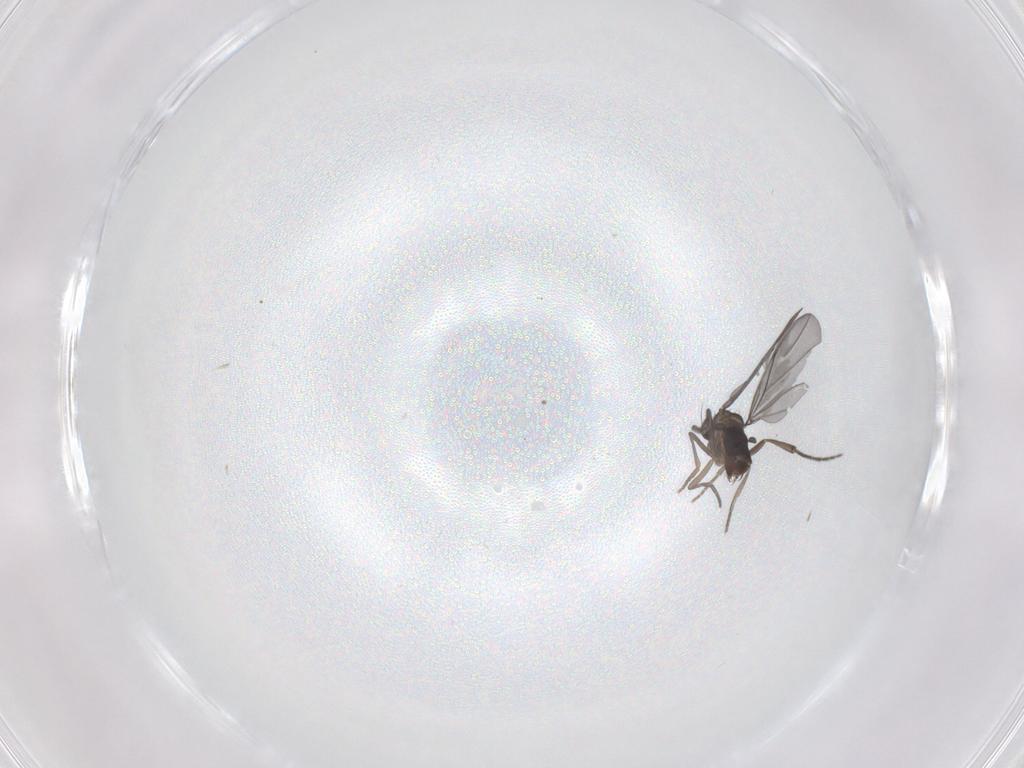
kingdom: Animalia
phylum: Arthropoda
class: Insecta
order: Diptera
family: Phoridae
